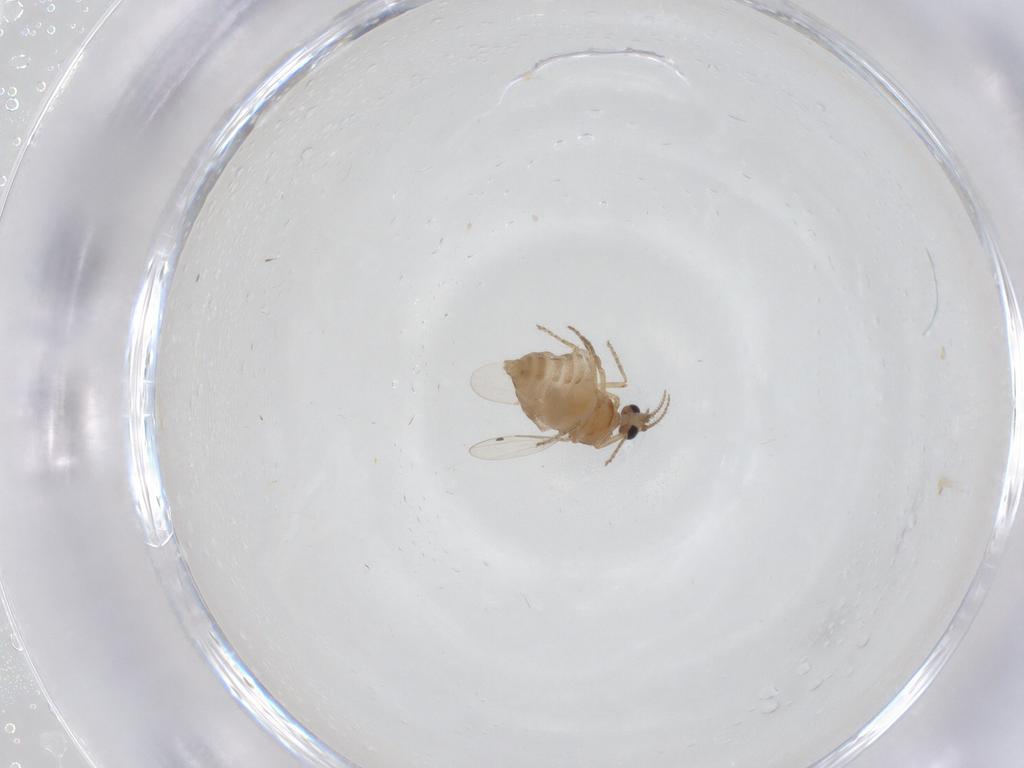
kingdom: Animalia
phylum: Arthropoda
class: Insecta
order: Diptera
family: Ceratopogonidae
